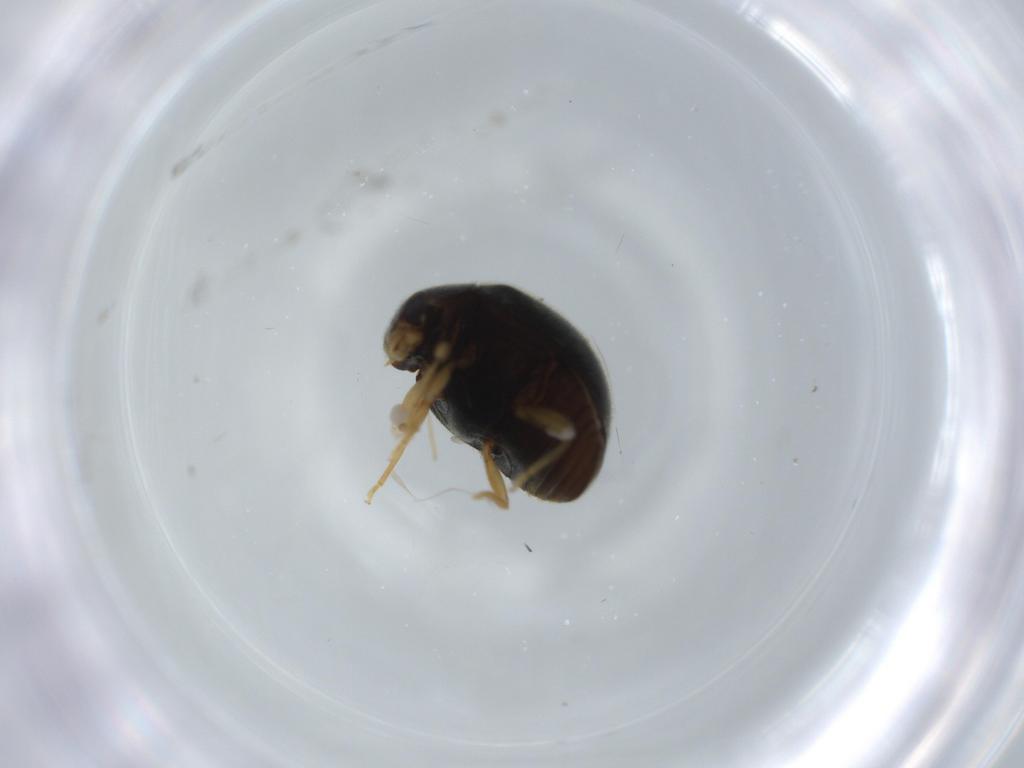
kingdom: Animalia
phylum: Arthropoda
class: Insecta
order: Coleoptera
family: Coccinellidae
